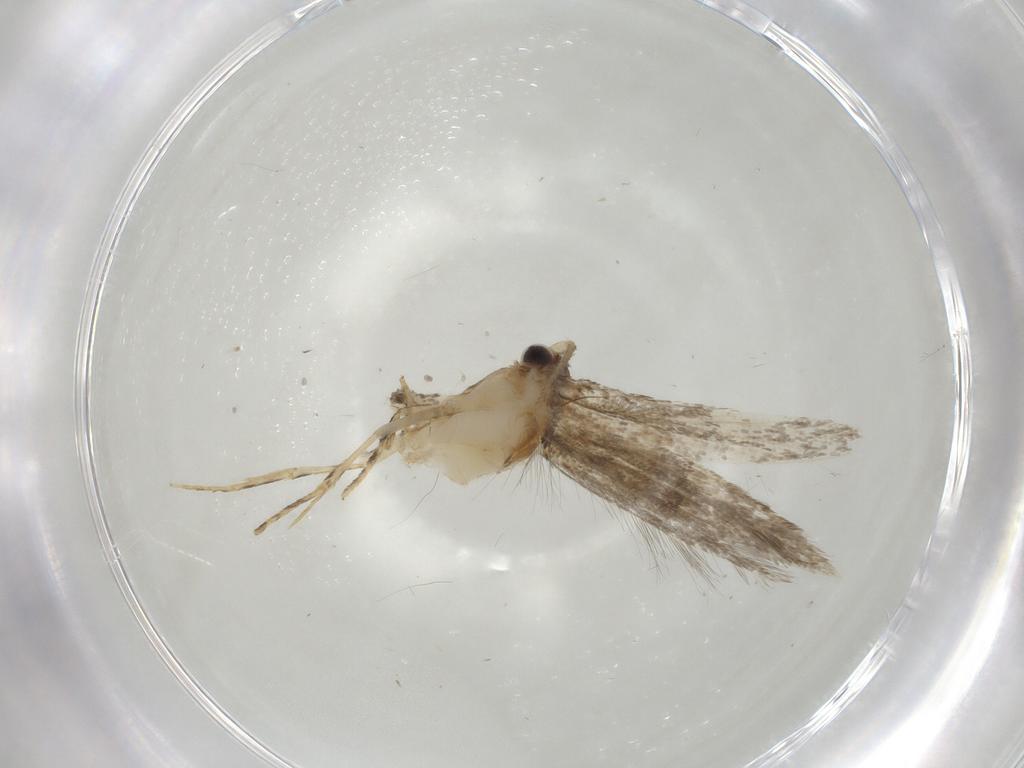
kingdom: Animalia
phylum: Arthropoda
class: Insecta
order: Lepidoptera
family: Tineidae
